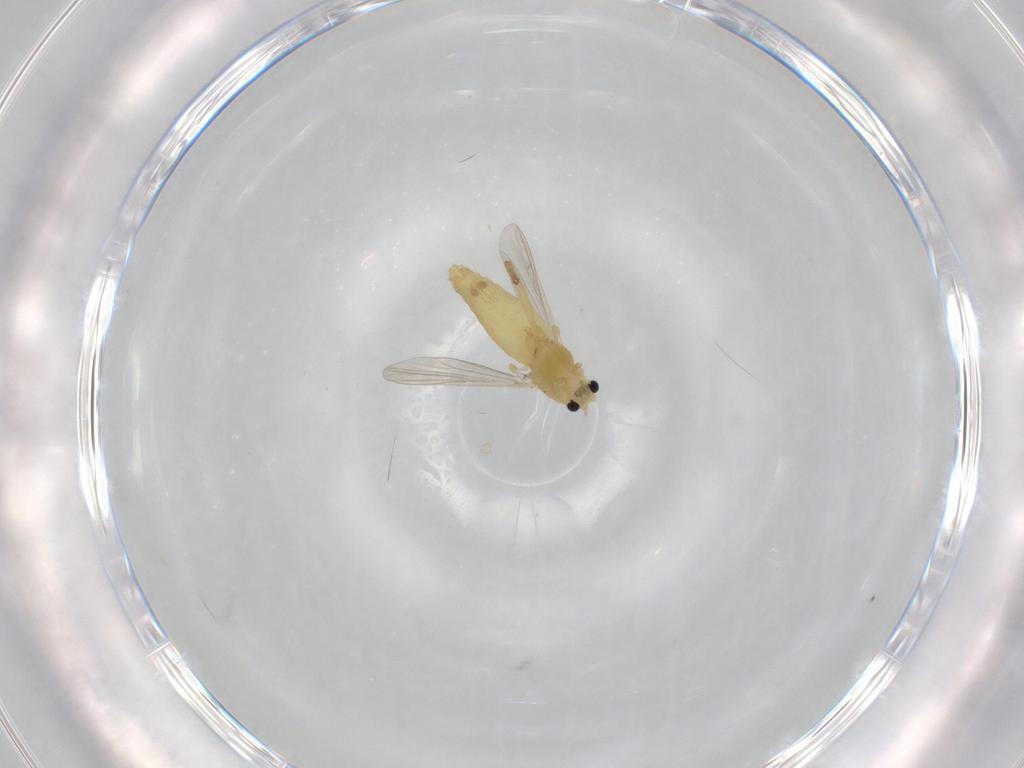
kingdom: Animalia
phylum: Arthropoda
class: Insecta
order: Diptera
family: Chironomidae
